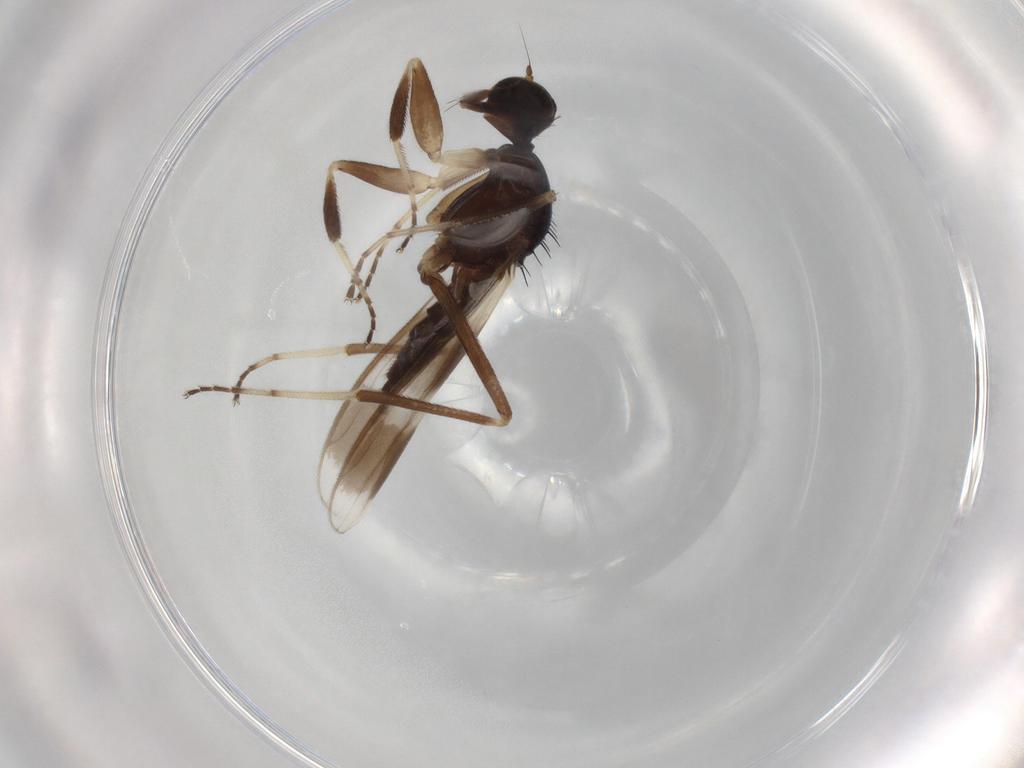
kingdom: Animalia
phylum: Arthropoda
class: Insecta
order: Diptera
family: Hybotidae
